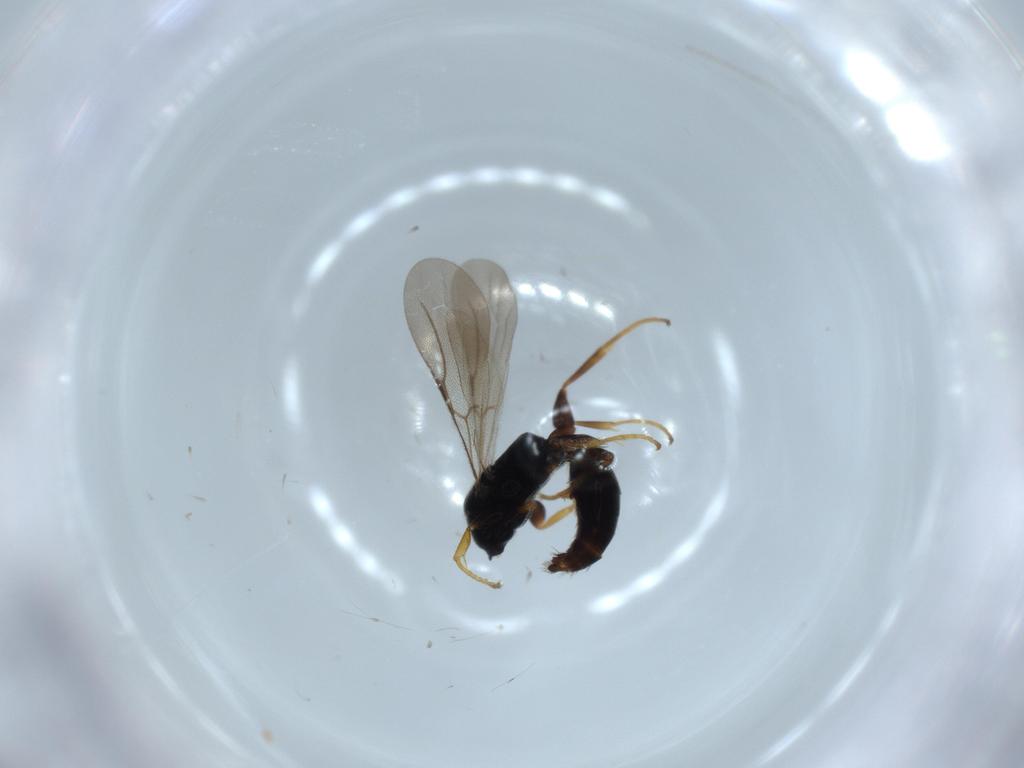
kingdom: Animalia
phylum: Arthropoda
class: Insecta
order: Hymenoptera
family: Bethylidae
